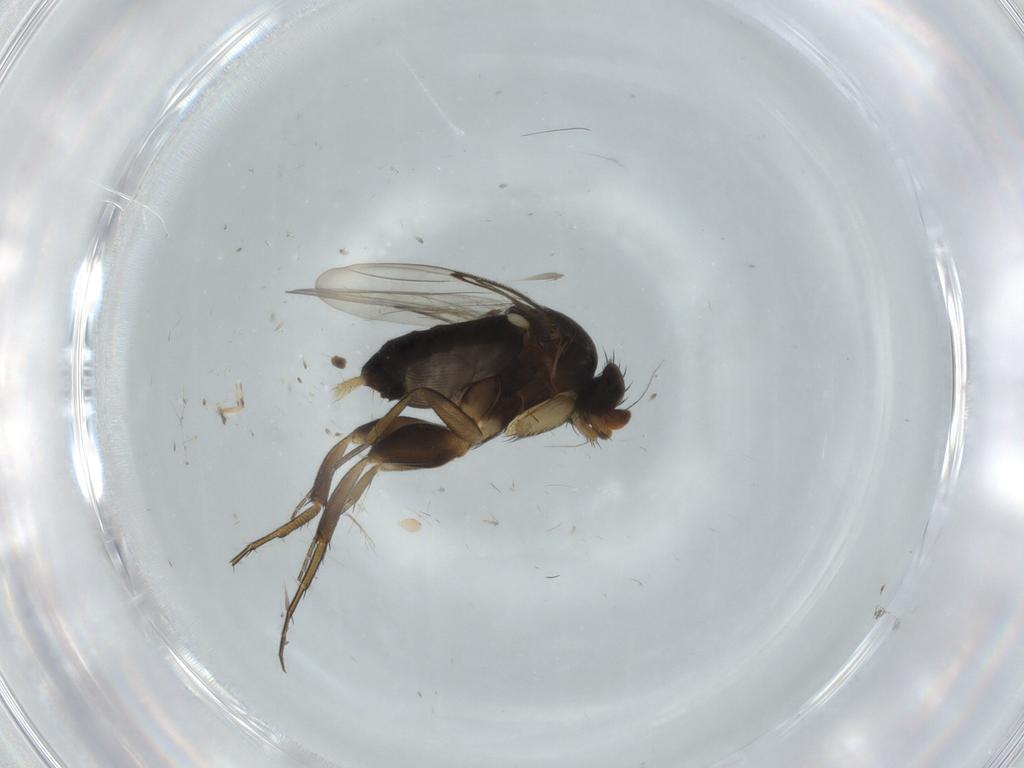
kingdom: Animalia
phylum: Arthropoda
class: Insecta
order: Diptera
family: Phoridae
